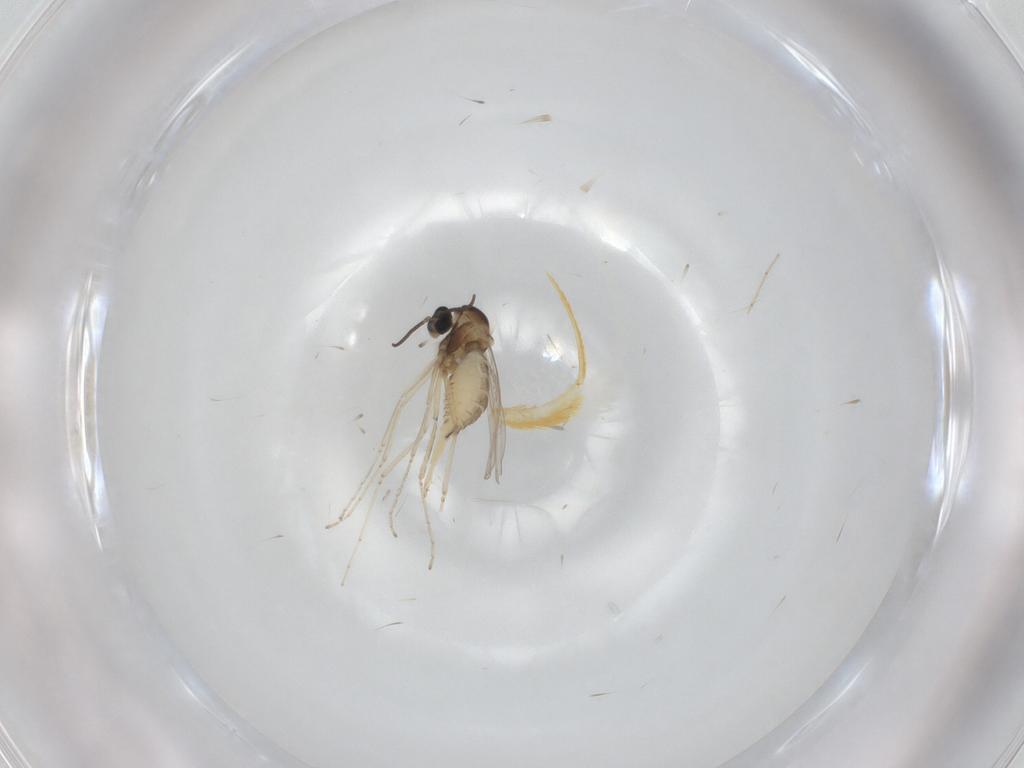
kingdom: Animalia
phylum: Arthropoda
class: Insecta
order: Diptera
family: Cecidomyiidae
